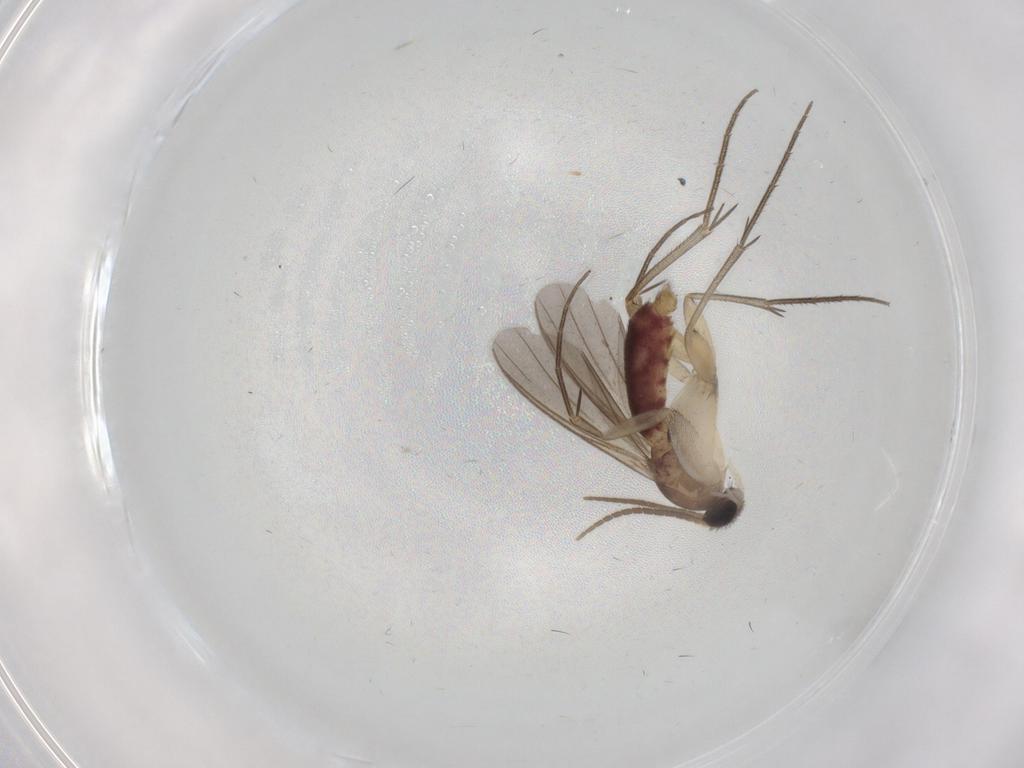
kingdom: Animalia
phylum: Arthropoda
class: Insecta
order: Diptera
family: Mycetophilidae
